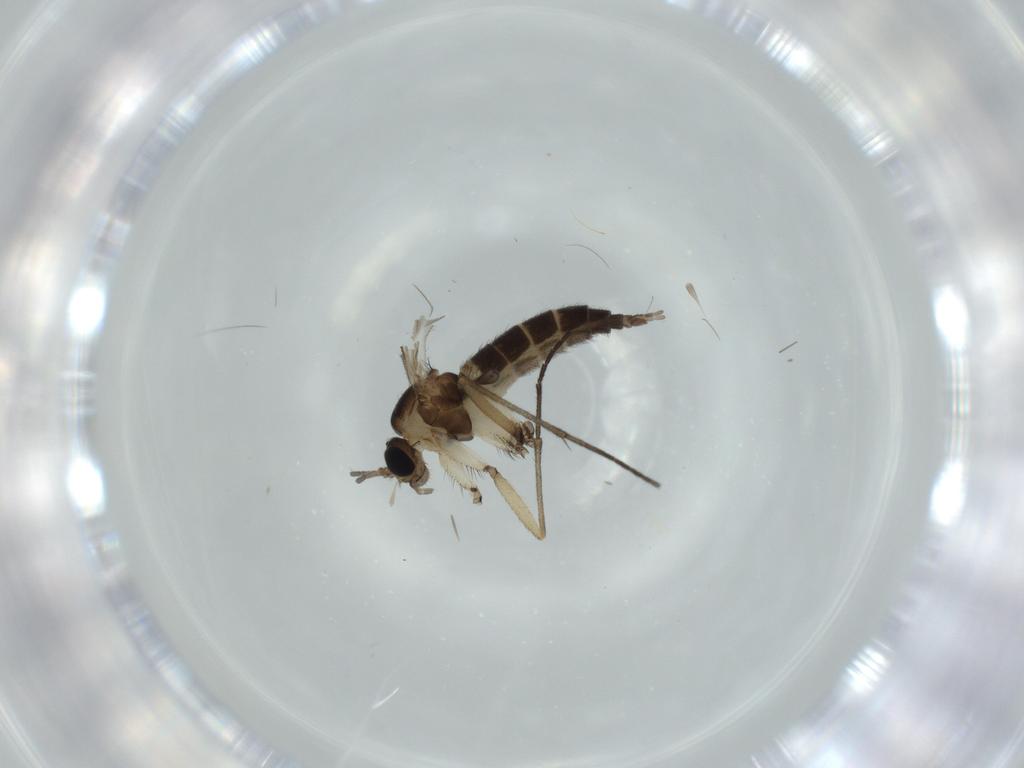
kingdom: Animalia
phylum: Arthropoda
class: Insecta
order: Diptera
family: Sciaridae
